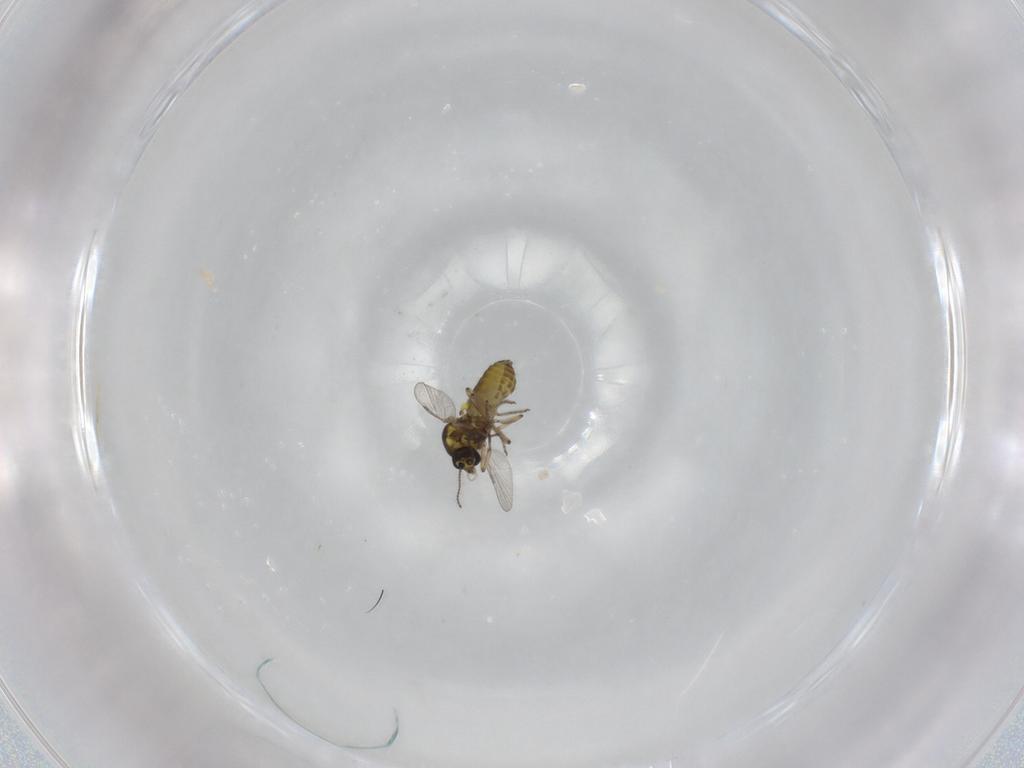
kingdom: Animalia
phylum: Arthropoda
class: Insecta
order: Diptera
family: Ceratopogonidae
